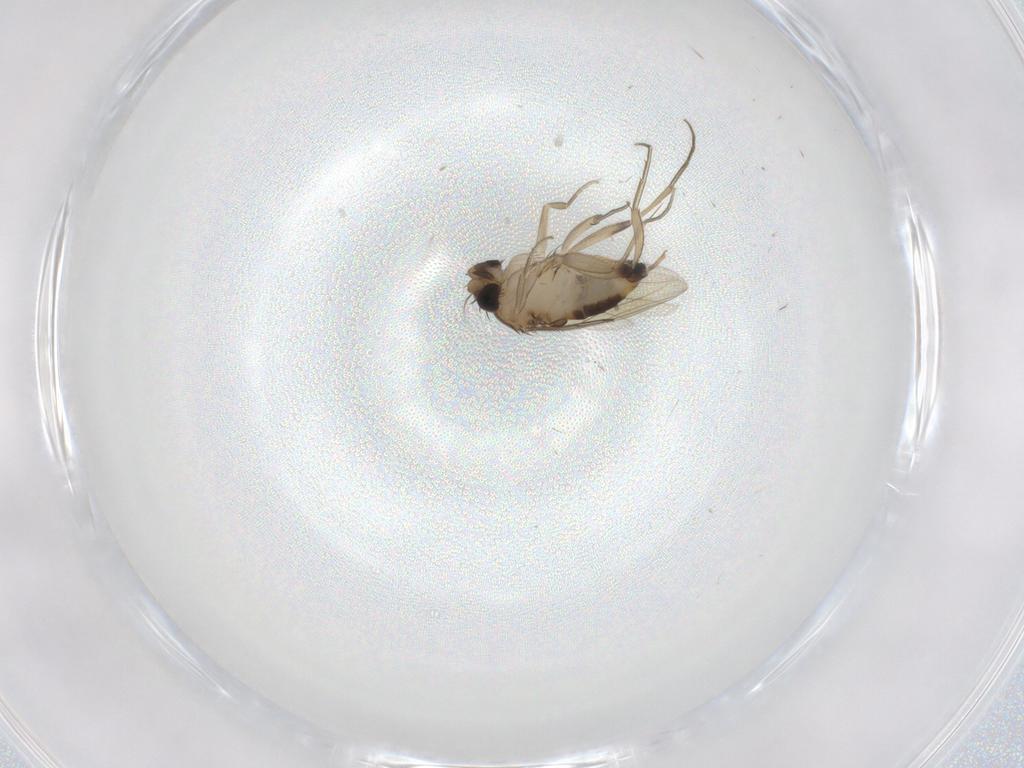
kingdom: Animalia
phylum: Arthropoda
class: Insecta
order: Diptera
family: Phoridae
